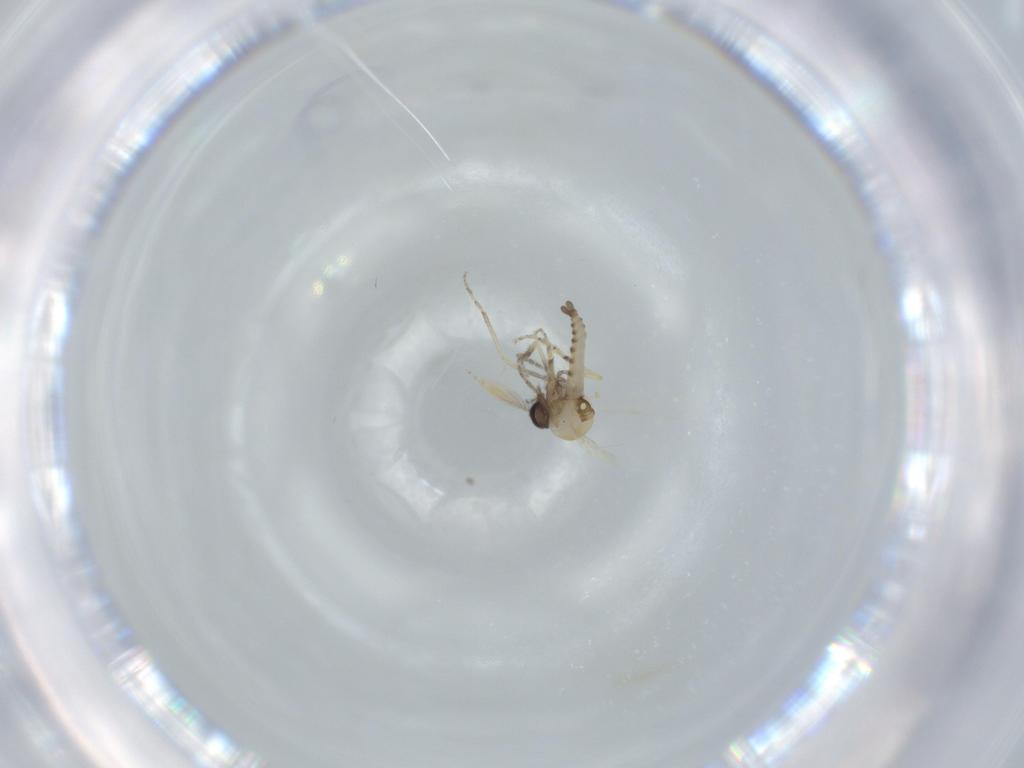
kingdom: Animalia
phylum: Arthropoda
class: Insecta
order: Diptera
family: Ceratopogonidae
